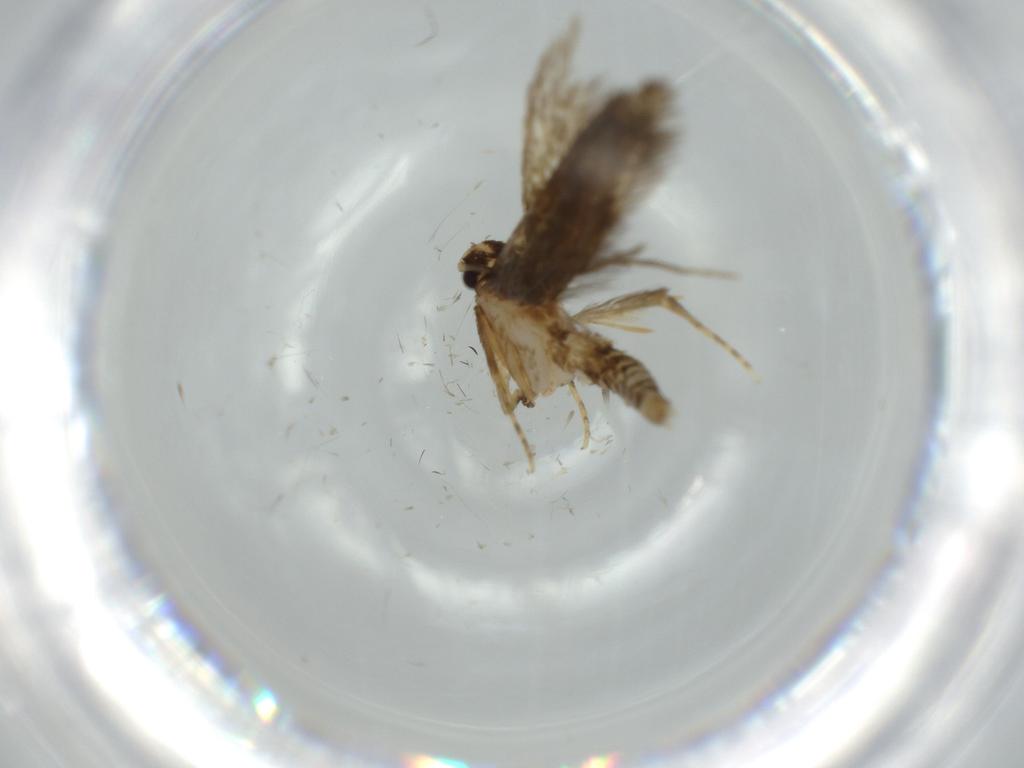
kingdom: Animalia
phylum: Arthropoda
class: Insecta
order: Lepidoptera
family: Tineidae
